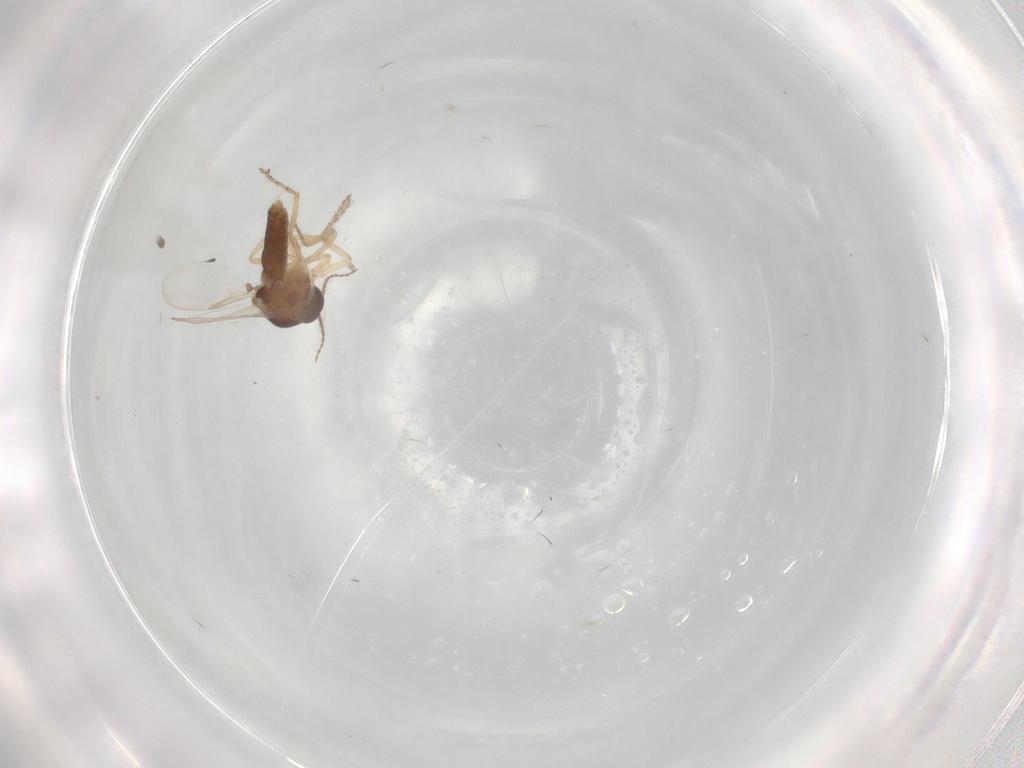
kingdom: Animalia
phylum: Arthropoda
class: Insecta
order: Diptera
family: Ceratopogonidae
